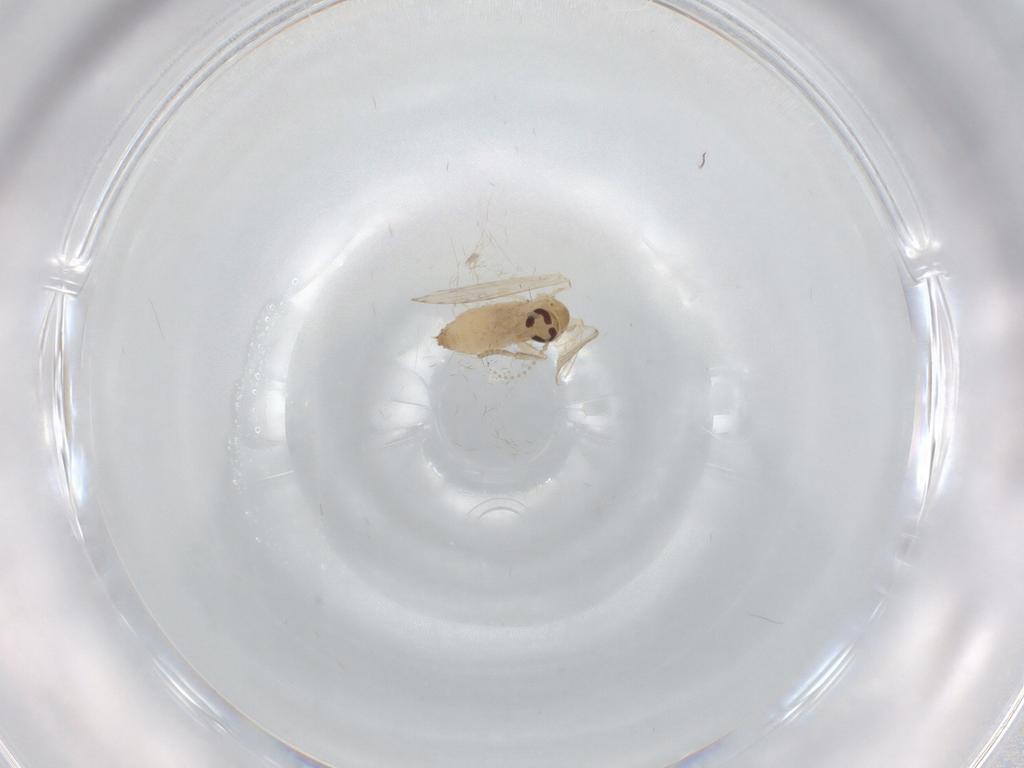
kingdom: Animalia
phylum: Arthropoda
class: Insecta
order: Diptera
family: Psychodidae
